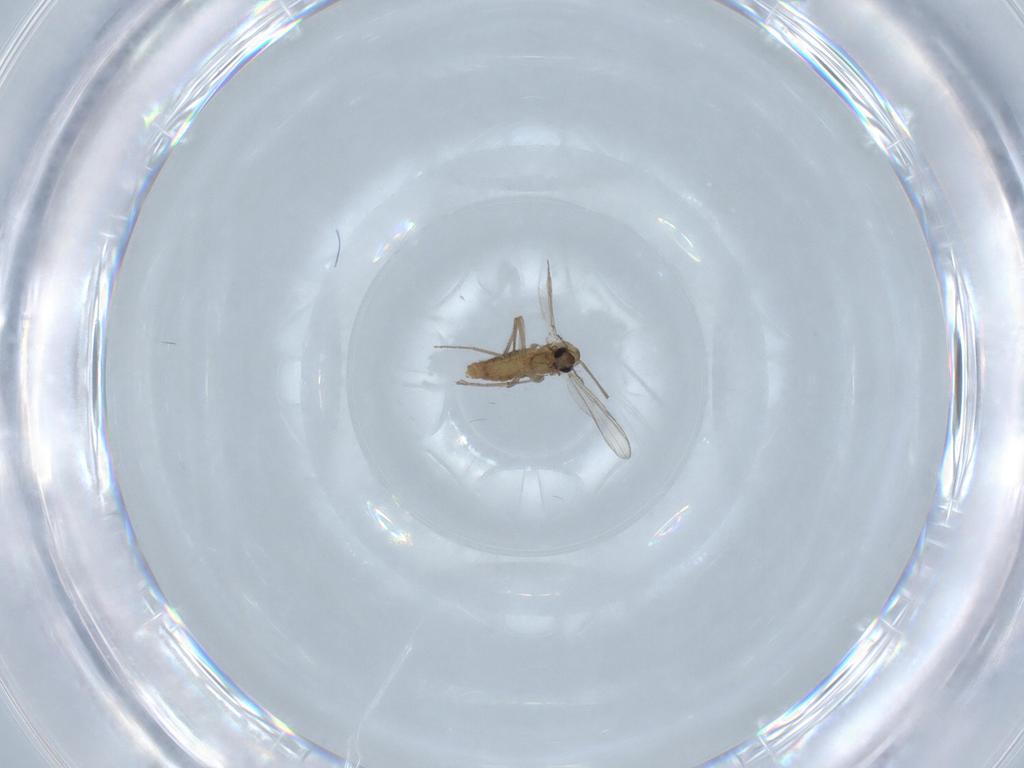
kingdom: Animalia
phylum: Arthropoda
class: Insecta
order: Diptera
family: Chironomidae
